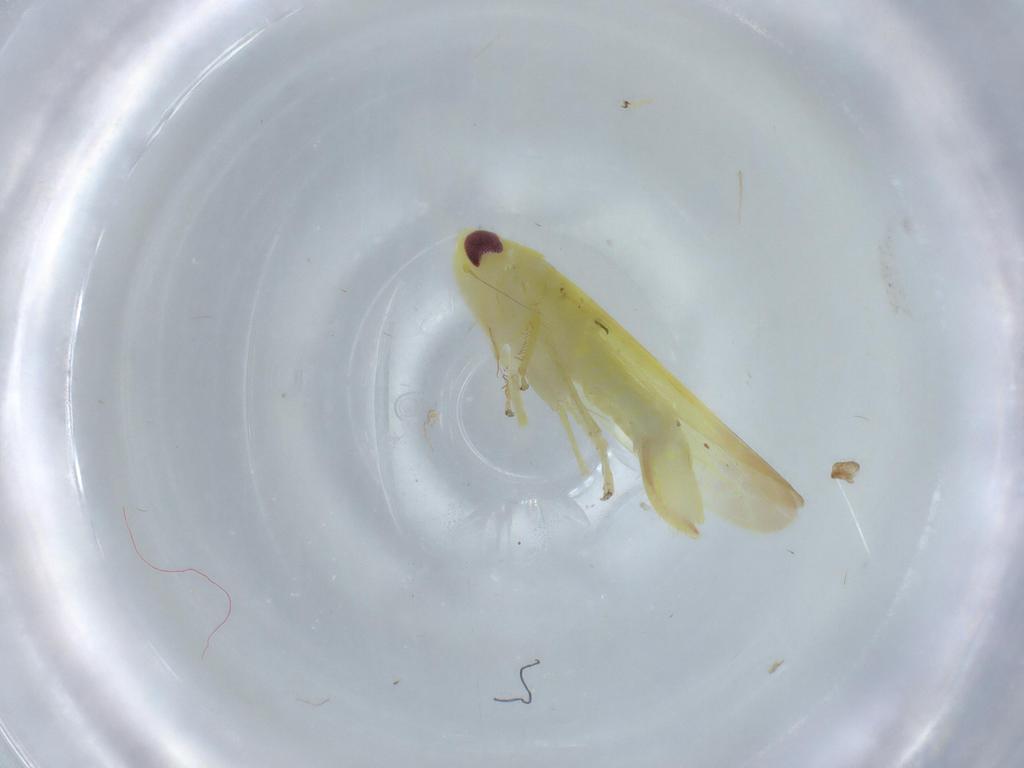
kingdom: Animalia
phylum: Arthropoda
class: Insecta
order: Hemiptera
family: Cicadellidae
